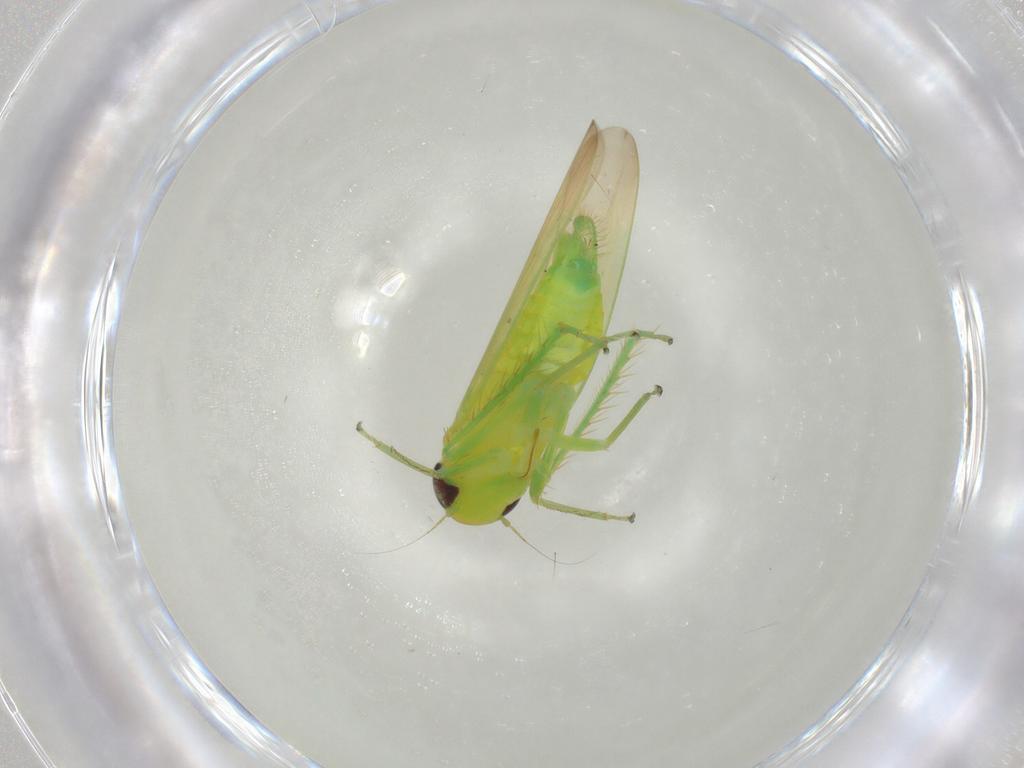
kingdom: Animalia
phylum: Arthropoda
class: Insecta
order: Hemiptera
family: Cicadellidae
